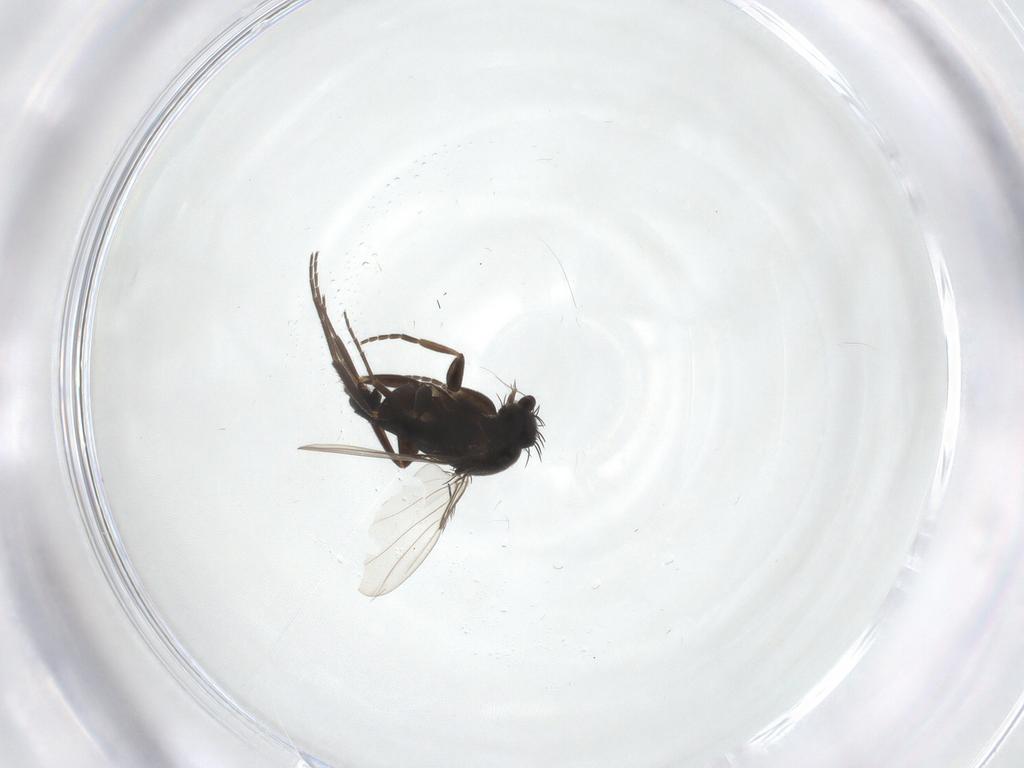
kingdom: Animalia
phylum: Arthropoda
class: Insecta
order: Diptera
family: Phoridae
